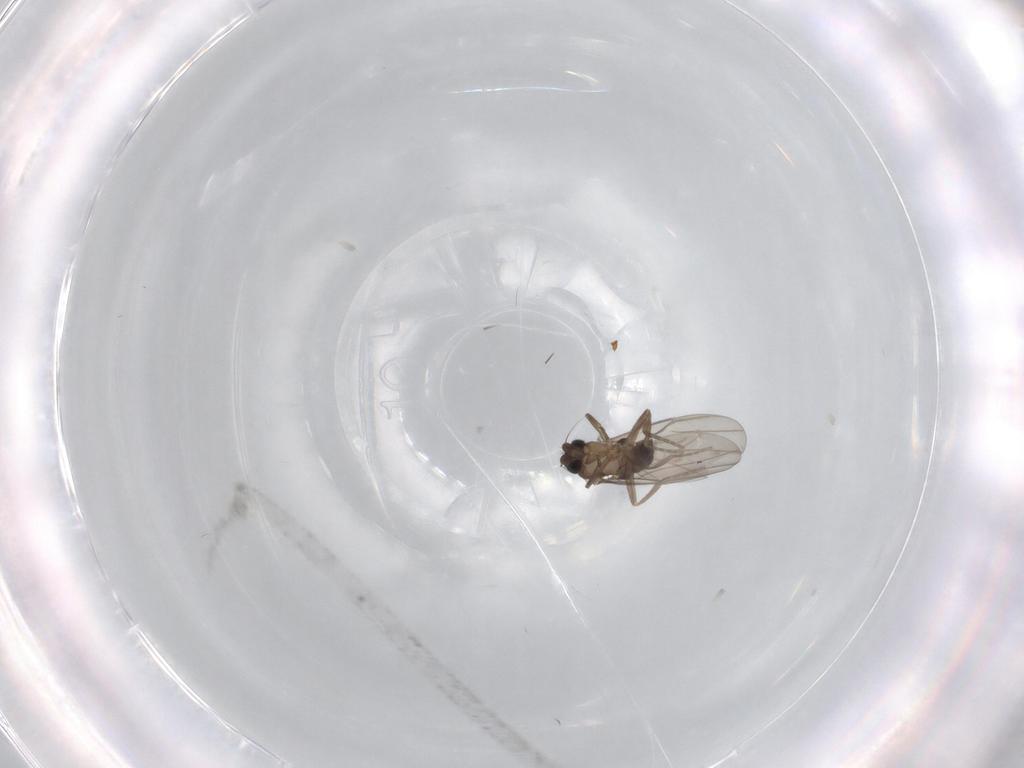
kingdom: Animalia
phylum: Arthropoda
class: Insecta
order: Diptera
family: Phoridae
